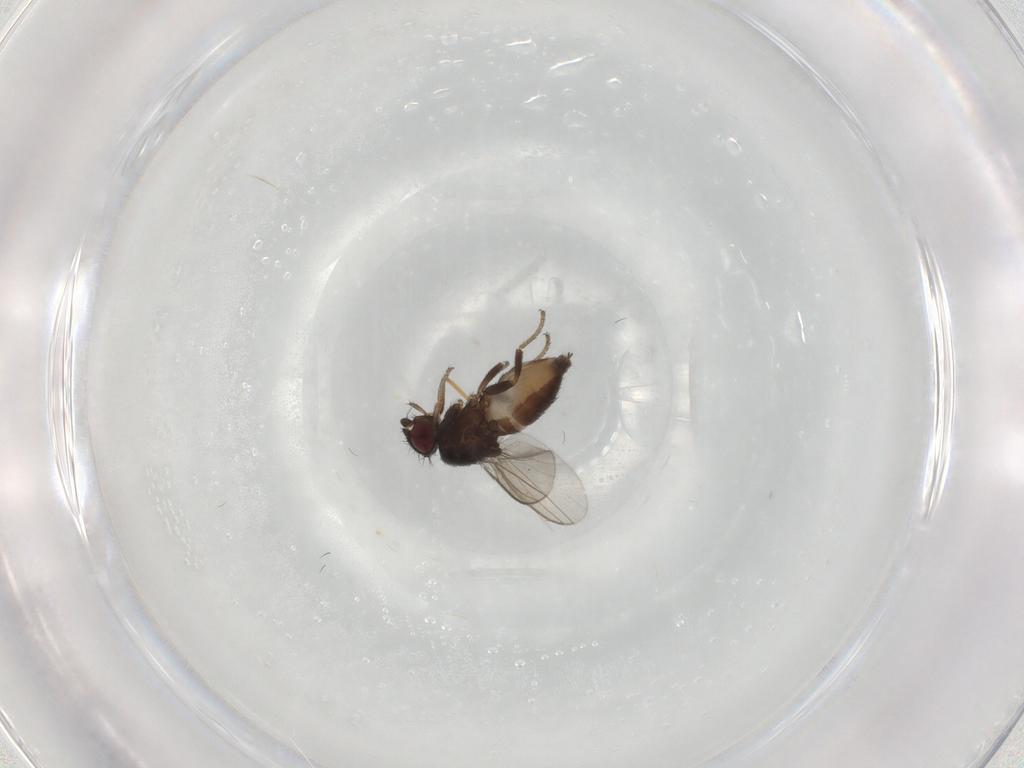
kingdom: Animalia
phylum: Arthropoda
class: Insecta
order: Diptera
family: Milichiidae
